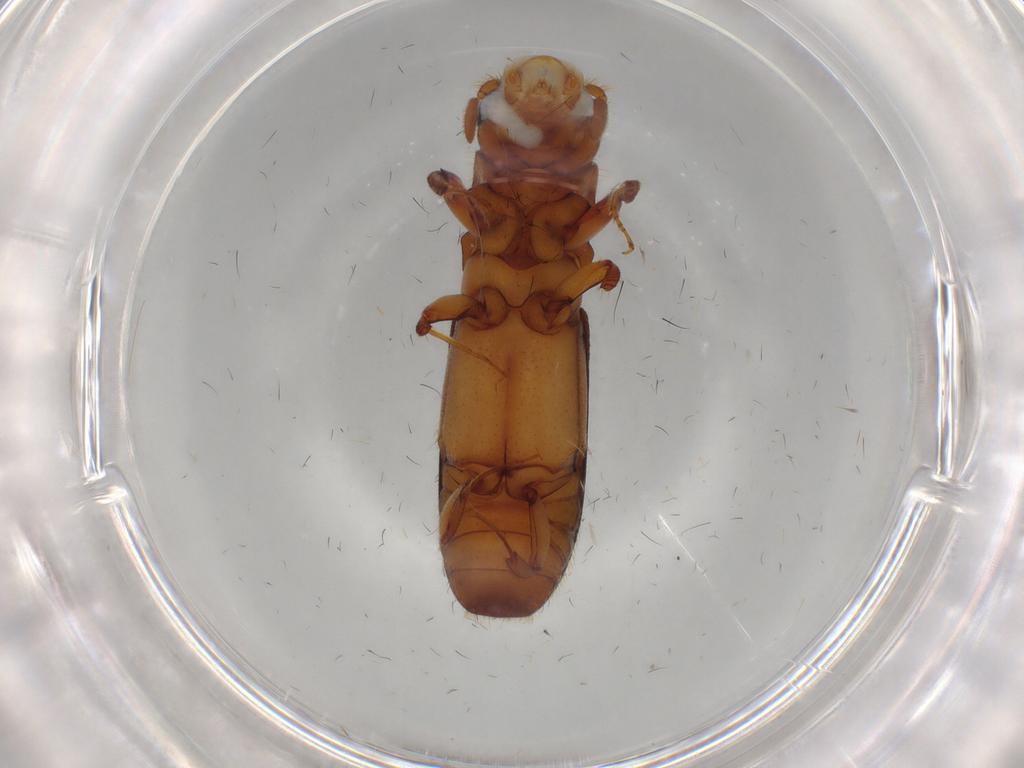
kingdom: Animalia
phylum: Arthropoda
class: Insecta
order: Coleoptera
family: Curculionidae
